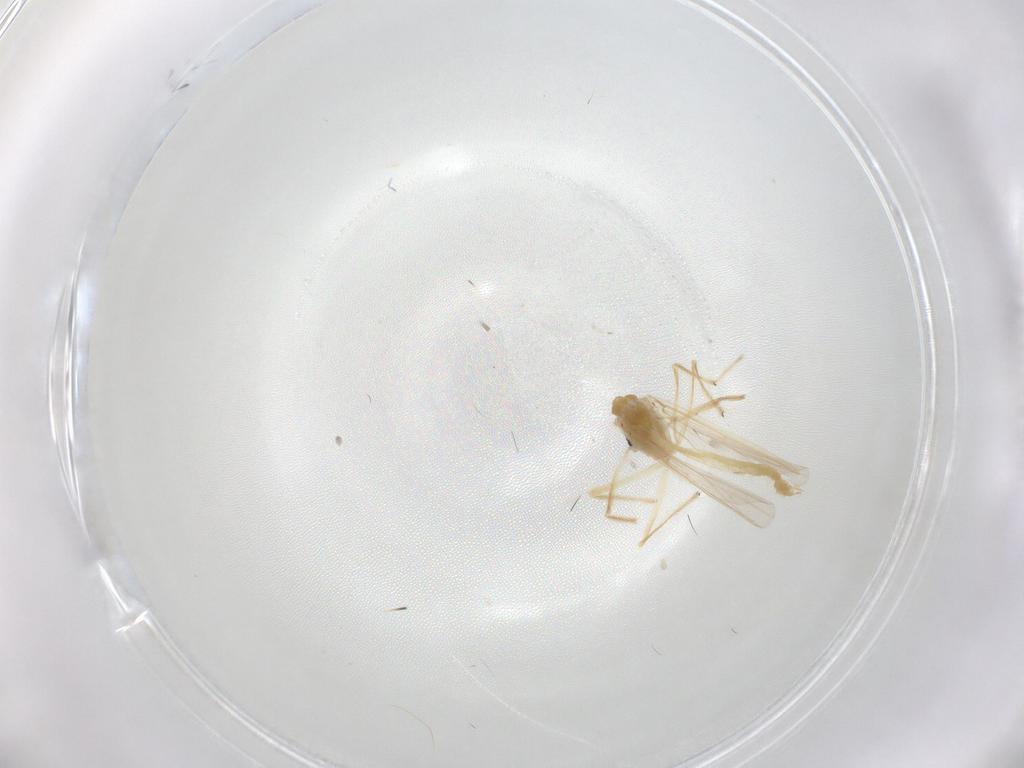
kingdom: Animalia
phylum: Arthropoda
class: Insecta
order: Diptera
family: Chironomidae
